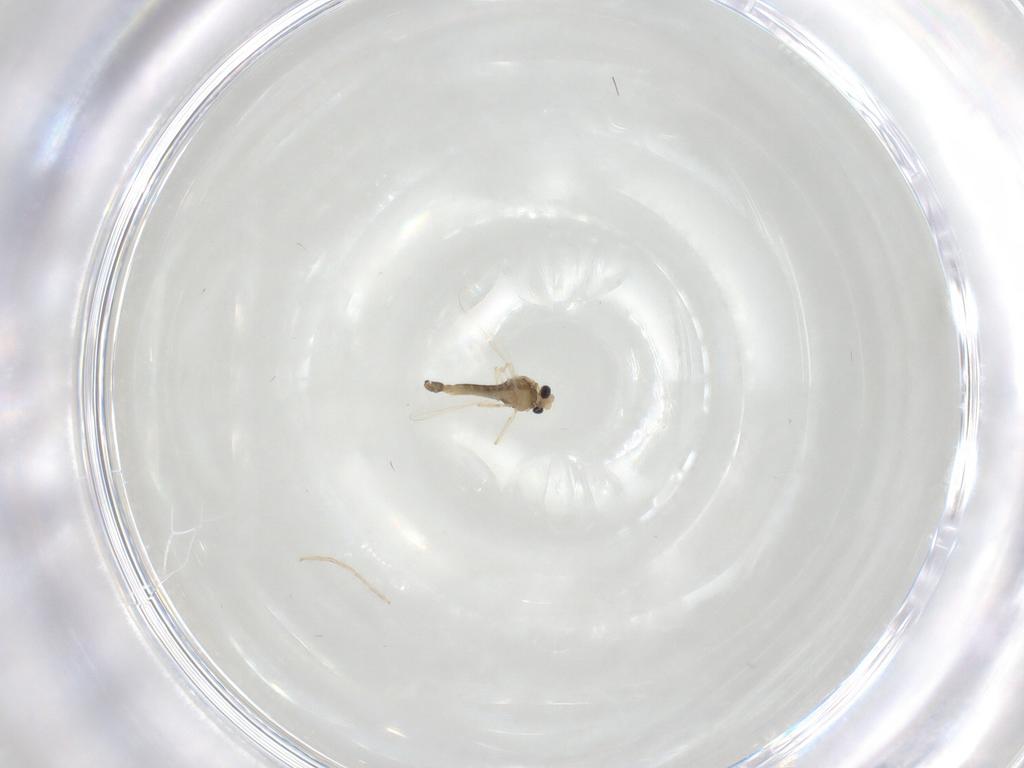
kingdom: Animalia
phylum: Arthropoda
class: Insecta
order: Diptera
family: Chironomidae
